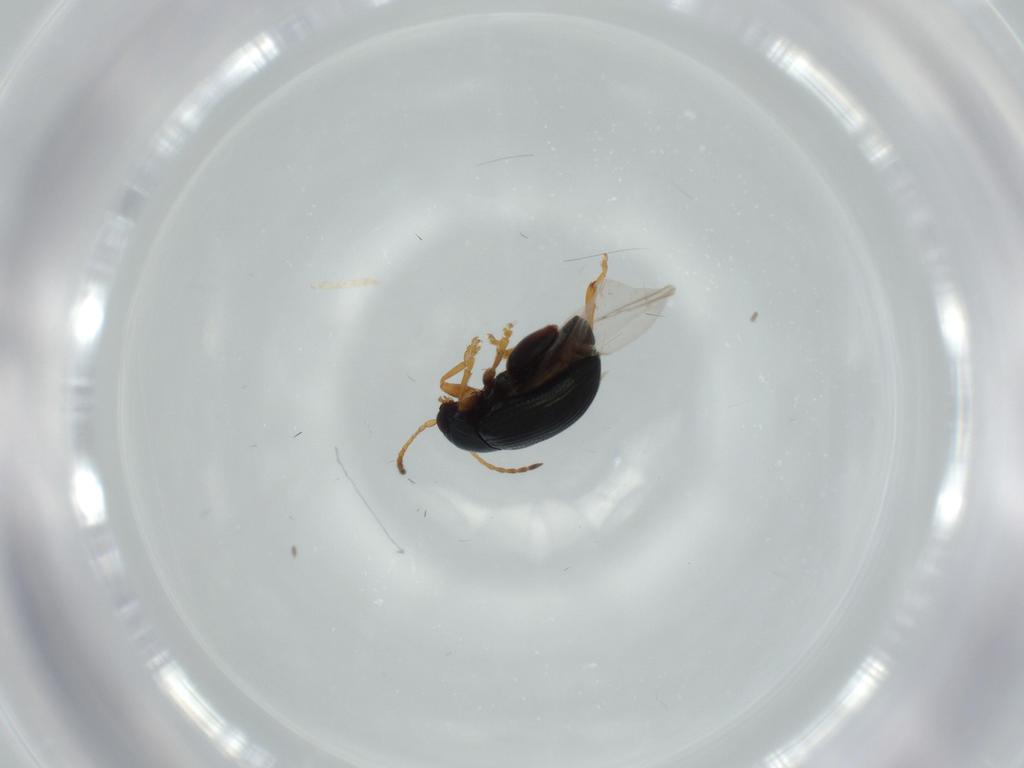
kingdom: Animalia
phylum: Arthropoda
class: Insecta
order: Coleoptera
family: Chrysomelidae
